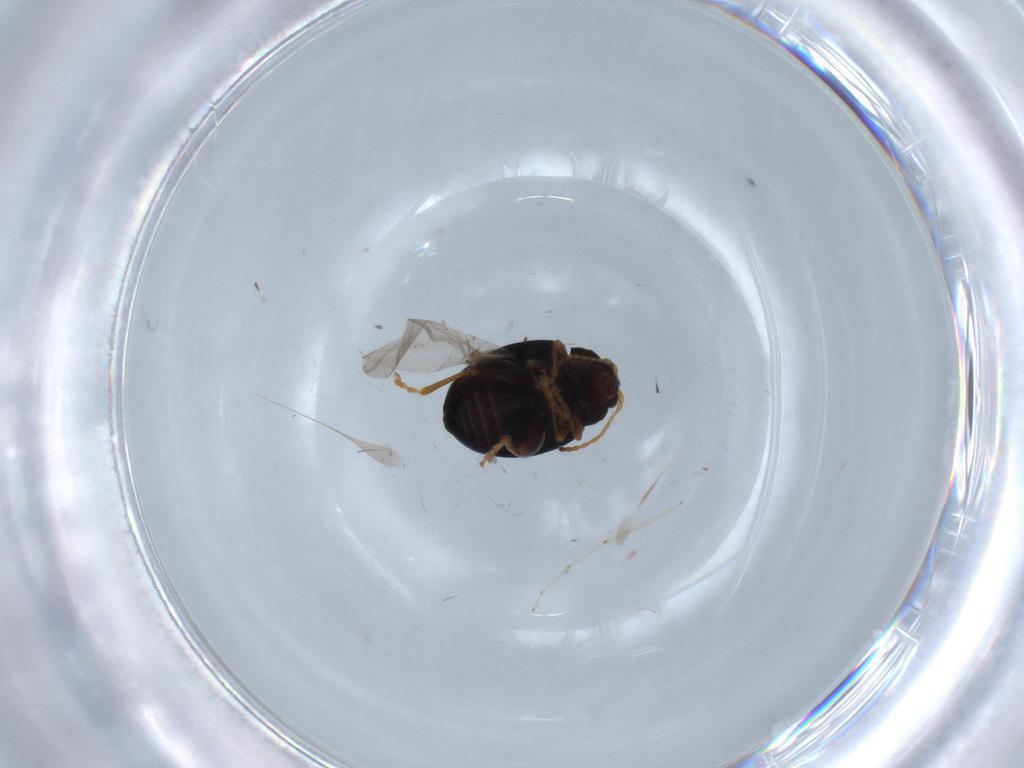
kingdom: Animalia
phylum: Arthropoda
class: Insecta
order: Coleoptera
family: Chrysomelidae
